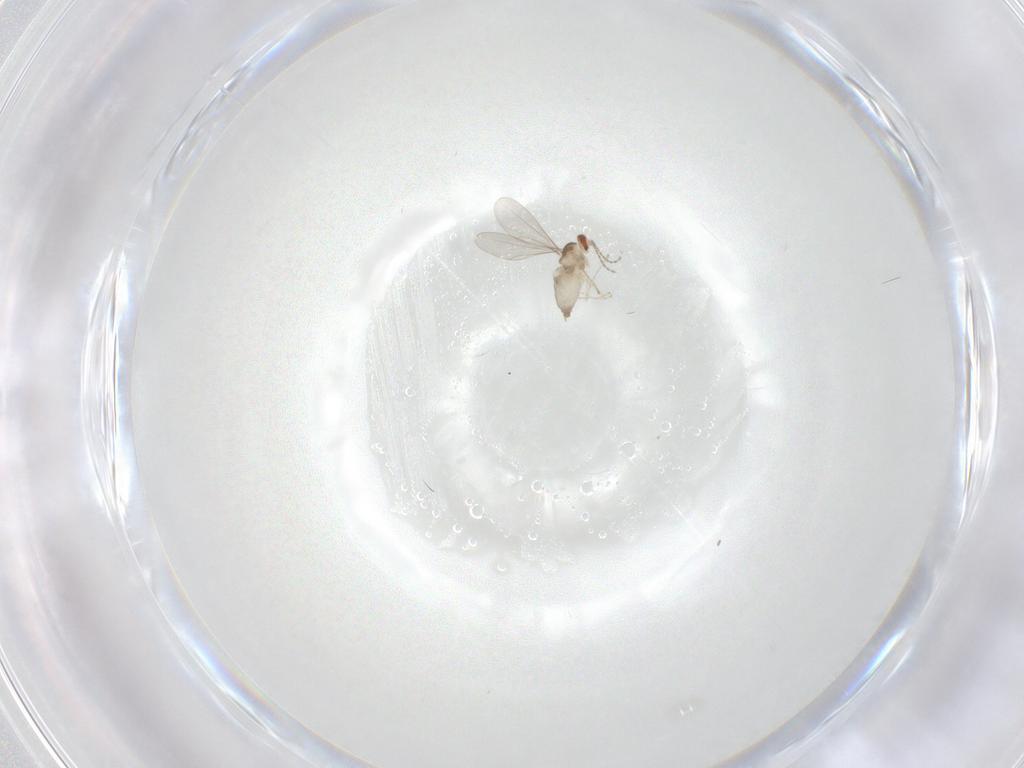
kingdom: Animalia
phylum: Arthropoda
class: Insecta
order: Diptera
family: Cecidomyiidae
